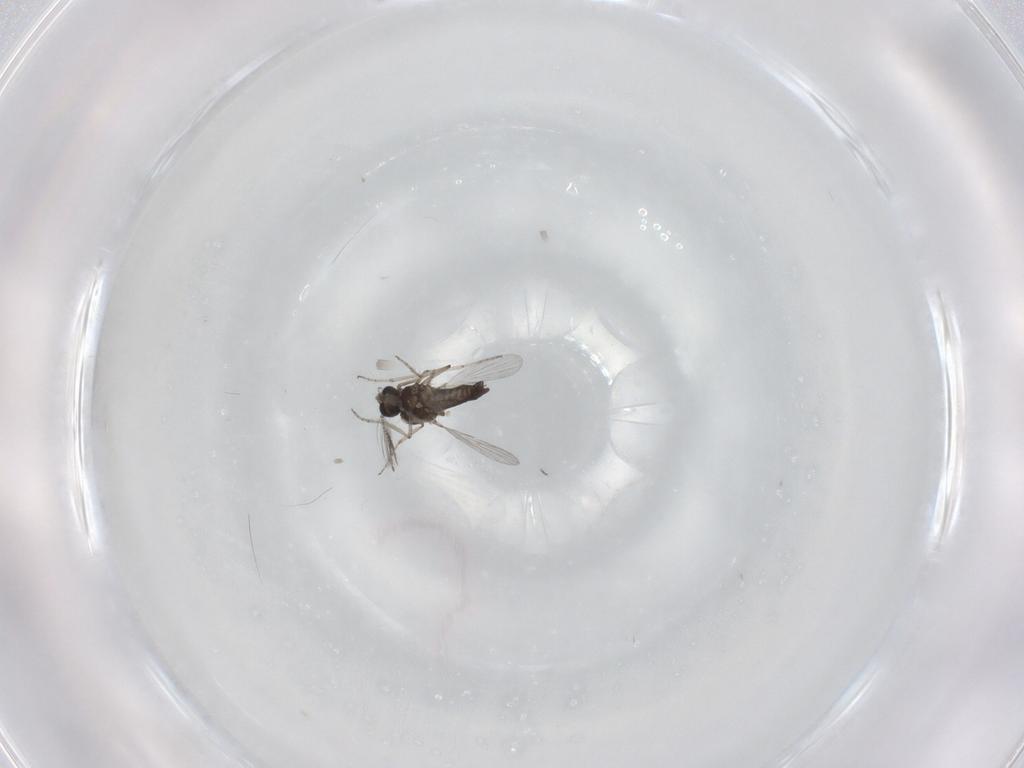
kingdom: Animalia
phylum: Arthropoda
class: Insecta
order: Diptera
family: Ceratopogonidae
